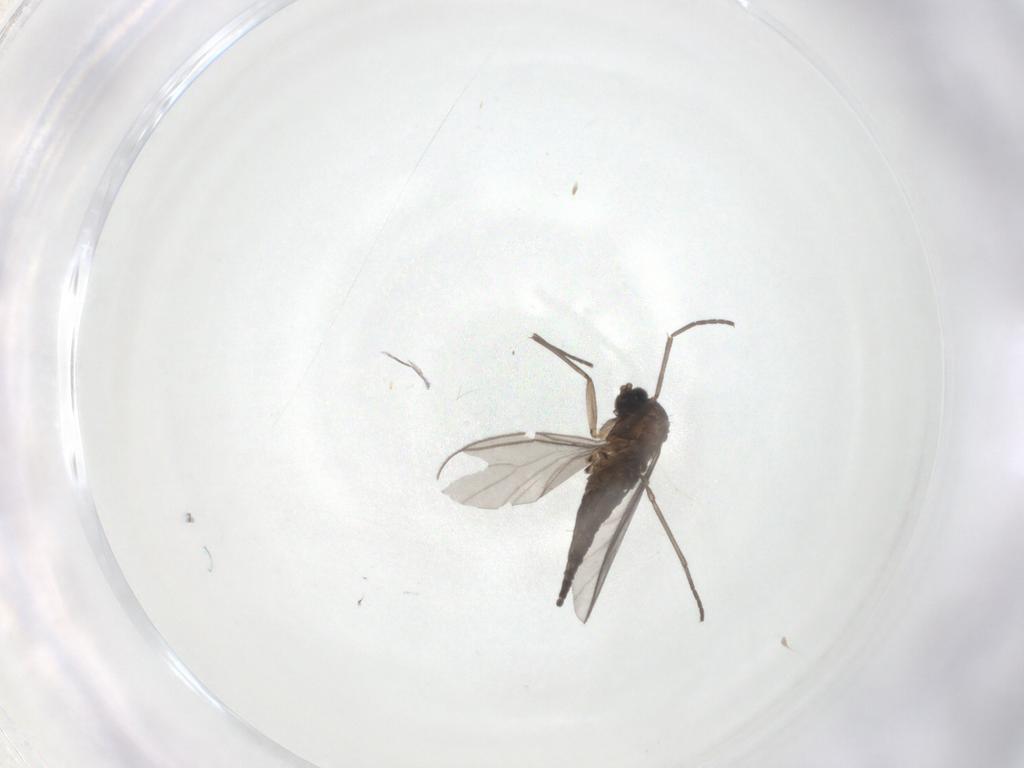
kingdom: Animalia
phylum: Arthropoda
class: Insecta
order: Diptera
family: Sciaridae
